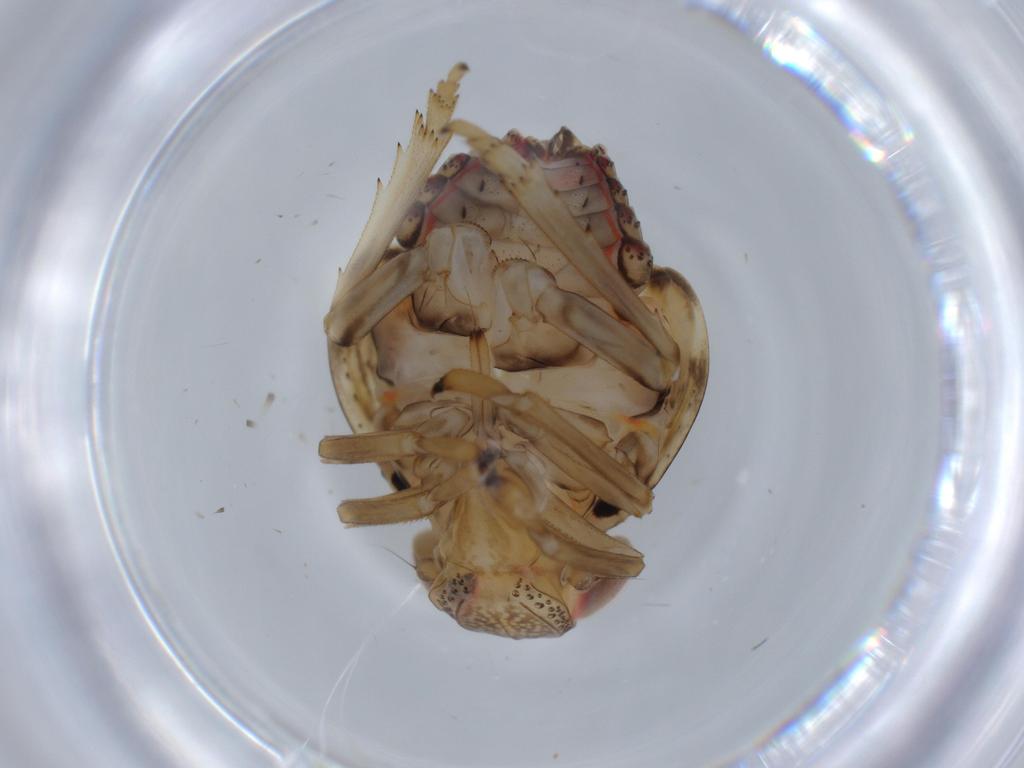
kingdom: Animalia
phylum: Arthropoda
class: Insecta
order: Hemiptera
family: Issidae
